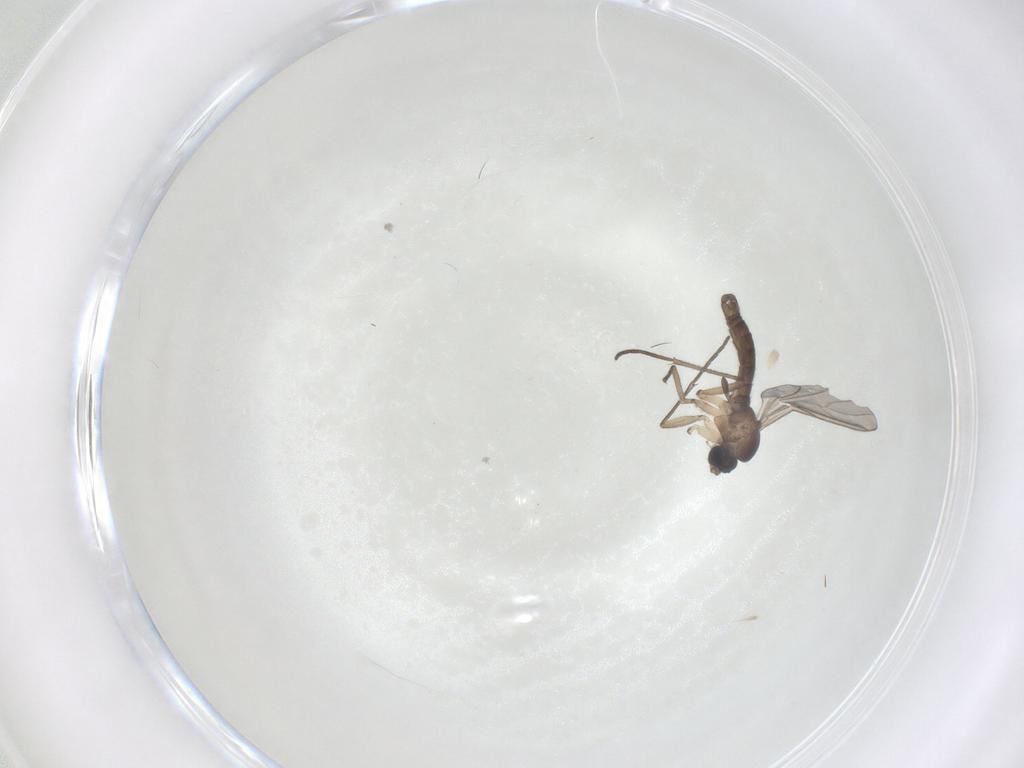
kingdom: Animalia
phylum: Arthropoda
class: Insecta
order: Diptera
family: Sciaridae
